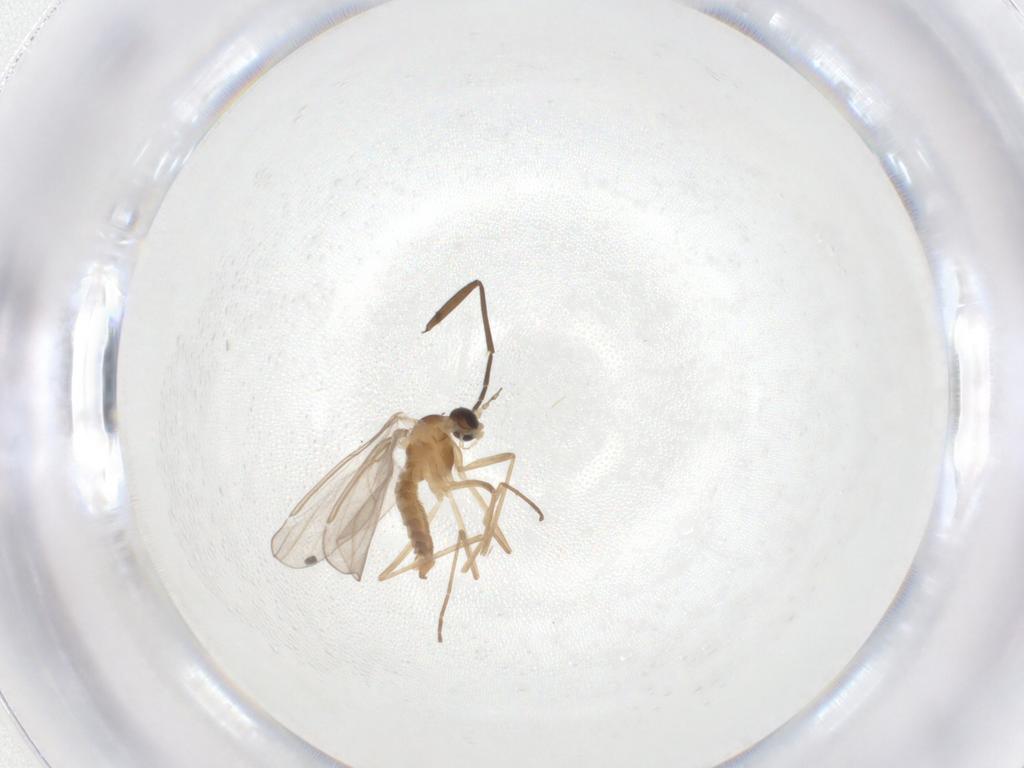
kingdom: Animalia
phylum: Arthropoda
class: Insecta
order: Diptera
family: Cecidomyiidae
